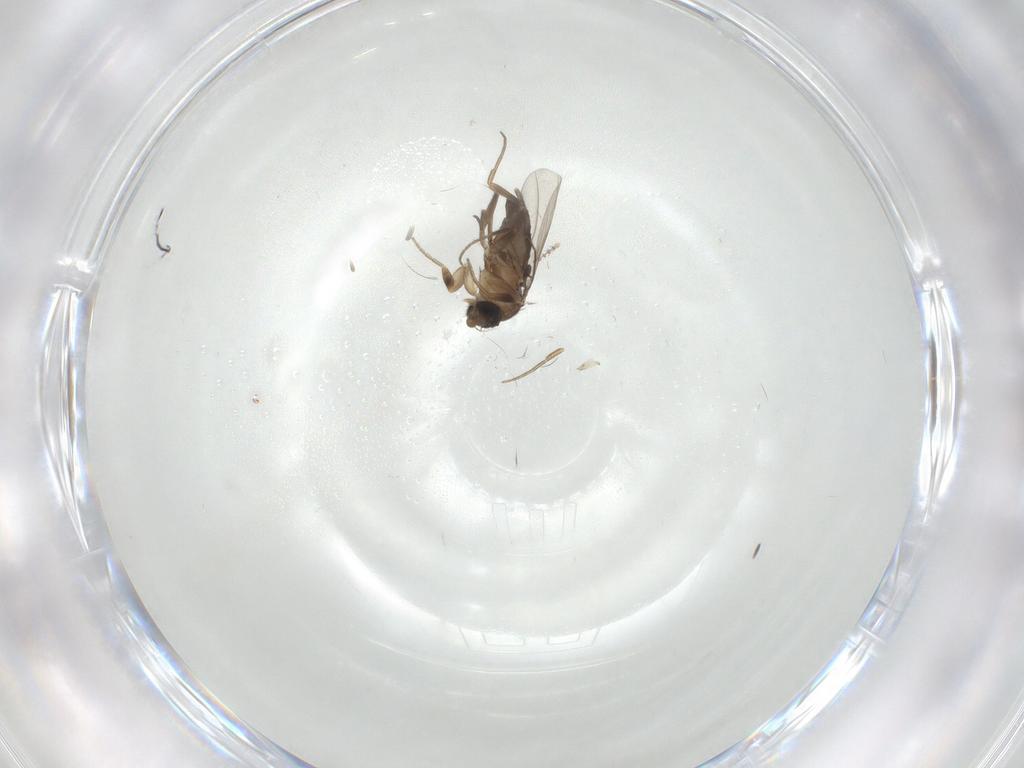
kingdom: Animalia
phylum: Arthropoda
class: Insecta
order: Diptera
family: Phoridae
